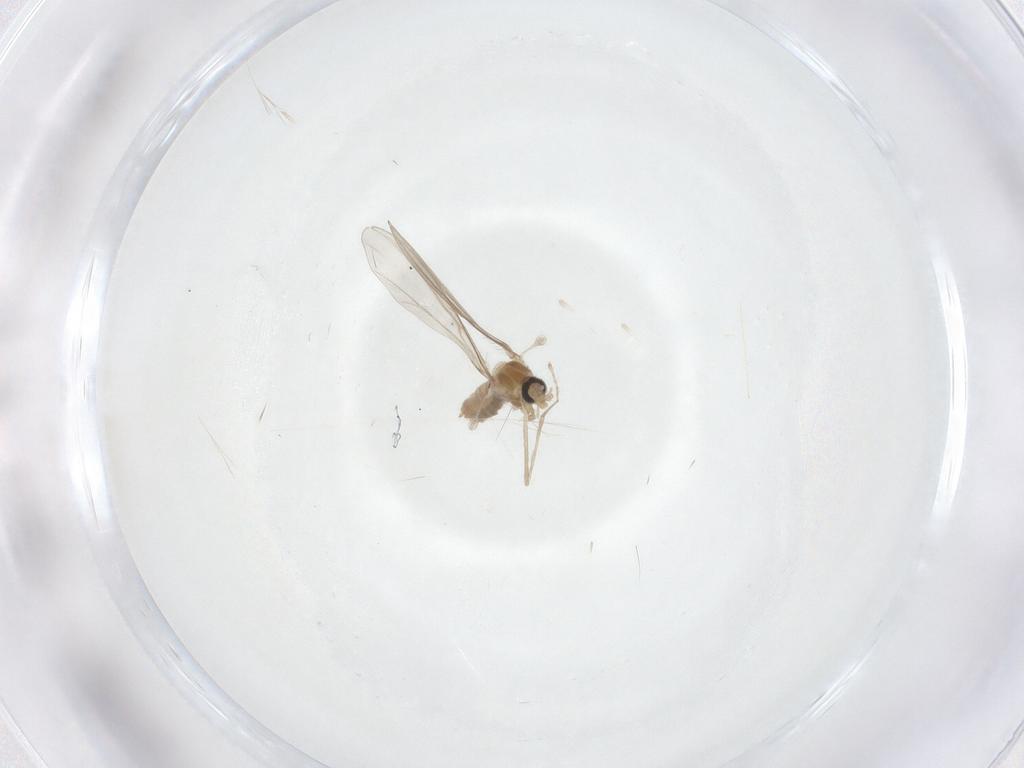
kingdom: Animalia
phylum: Arthropoda
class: Insecta
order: Diptera
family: Cecidomyiidae
